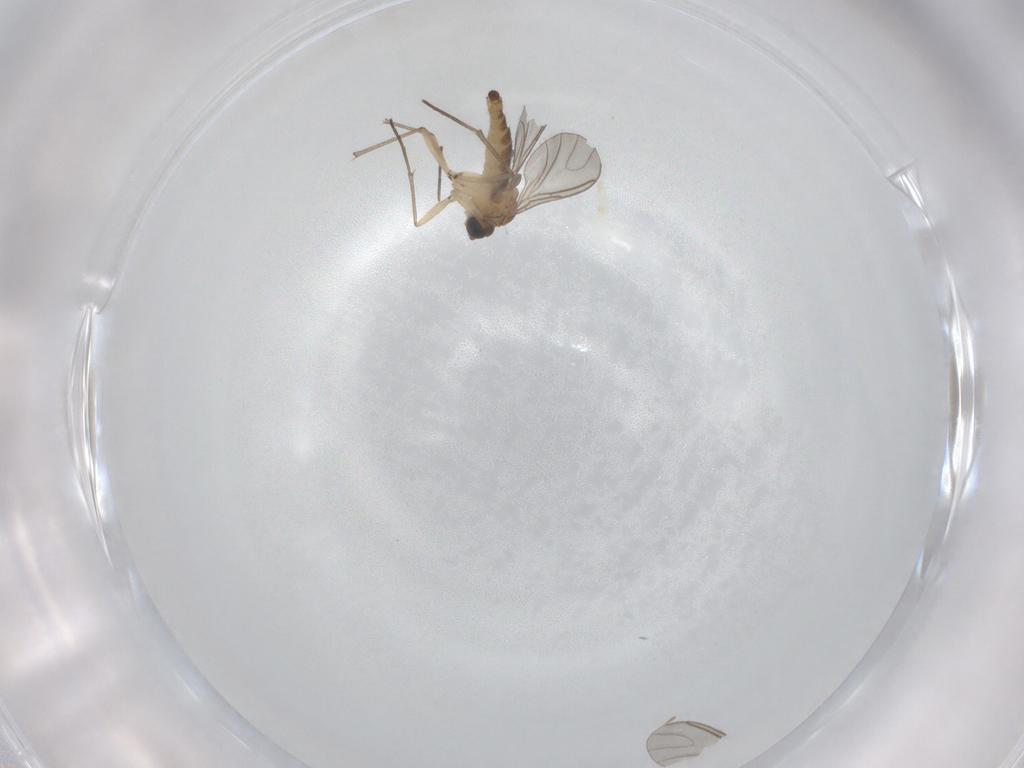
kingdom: Animalia
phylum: Arthropoda
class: Insecta
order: Diptera
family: Sciaridae
